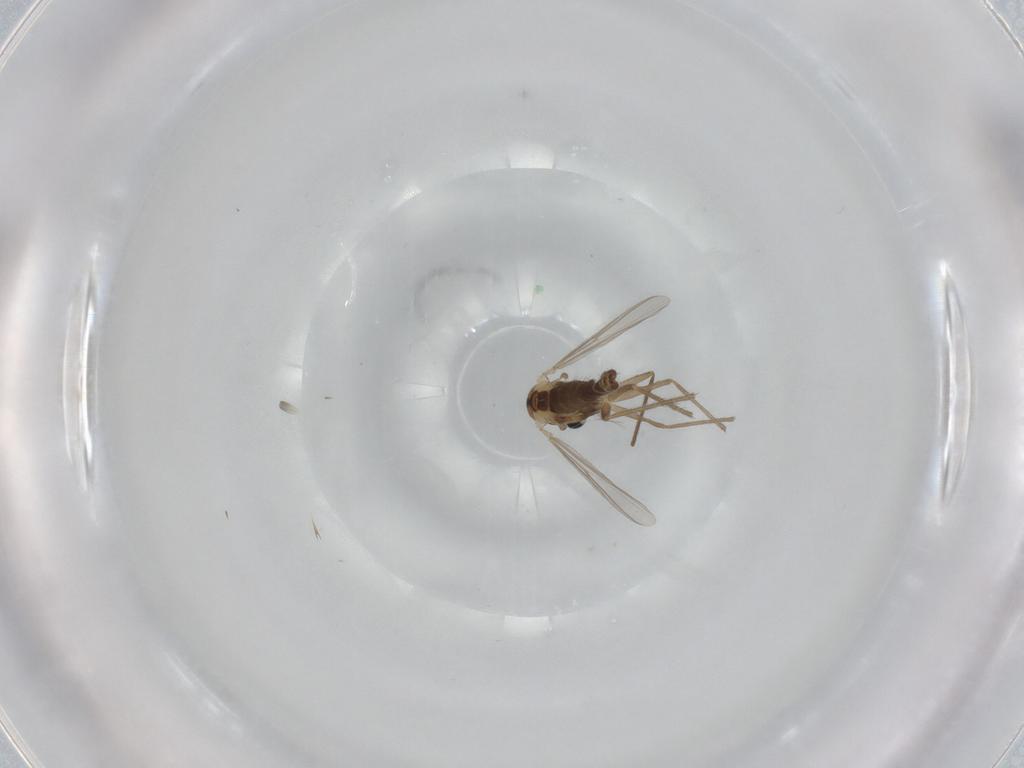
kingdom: Animalia
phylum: Arthropoda
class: Insecta
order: Diptera
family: Chironomidae
